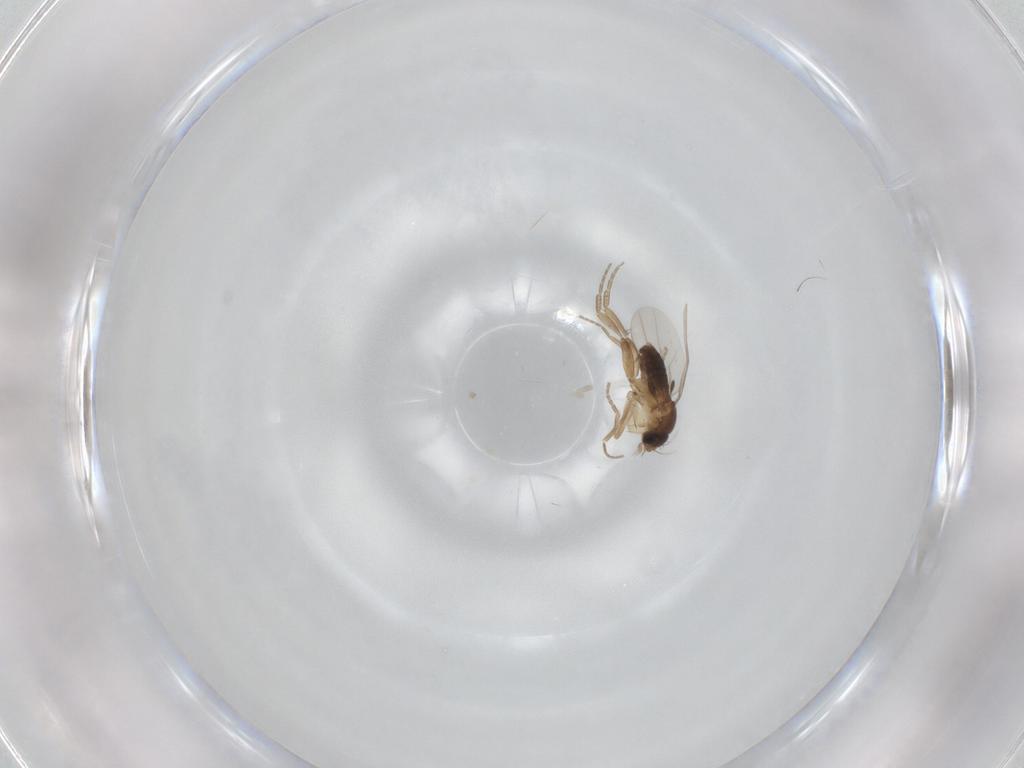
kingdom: Animalia
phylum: Arthropoda
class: Insecta
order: Diptera
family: Phoridae
